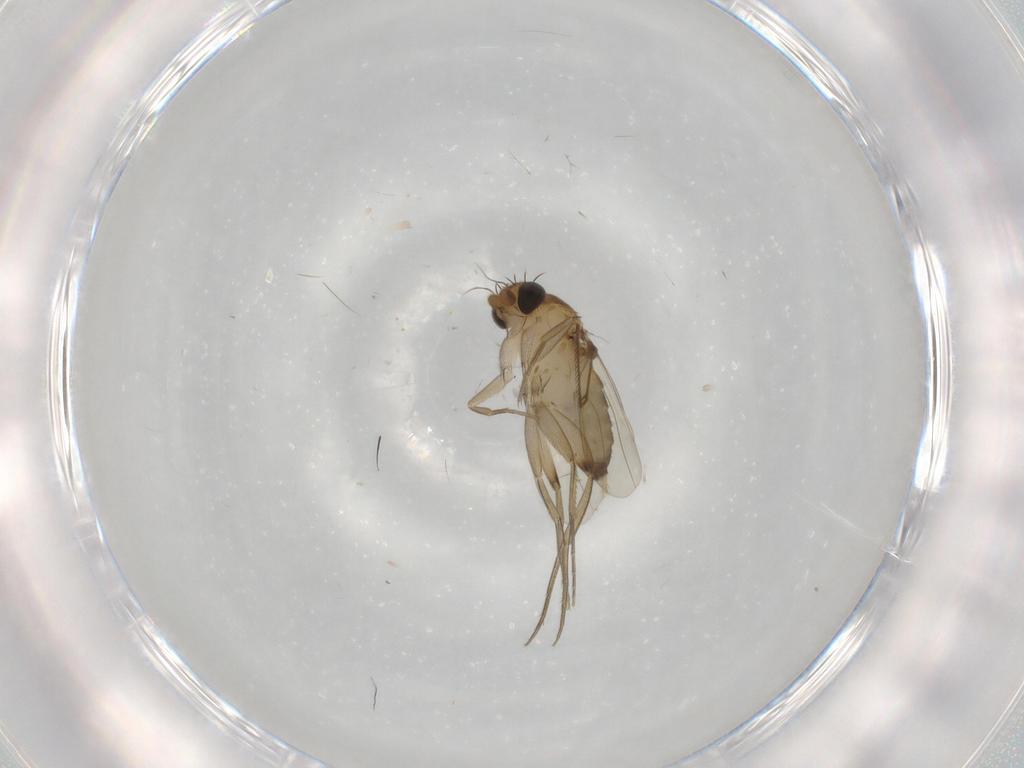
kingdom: Animalia
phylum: Arthropoda
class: Insecta
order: Diptera
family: Phoridae
